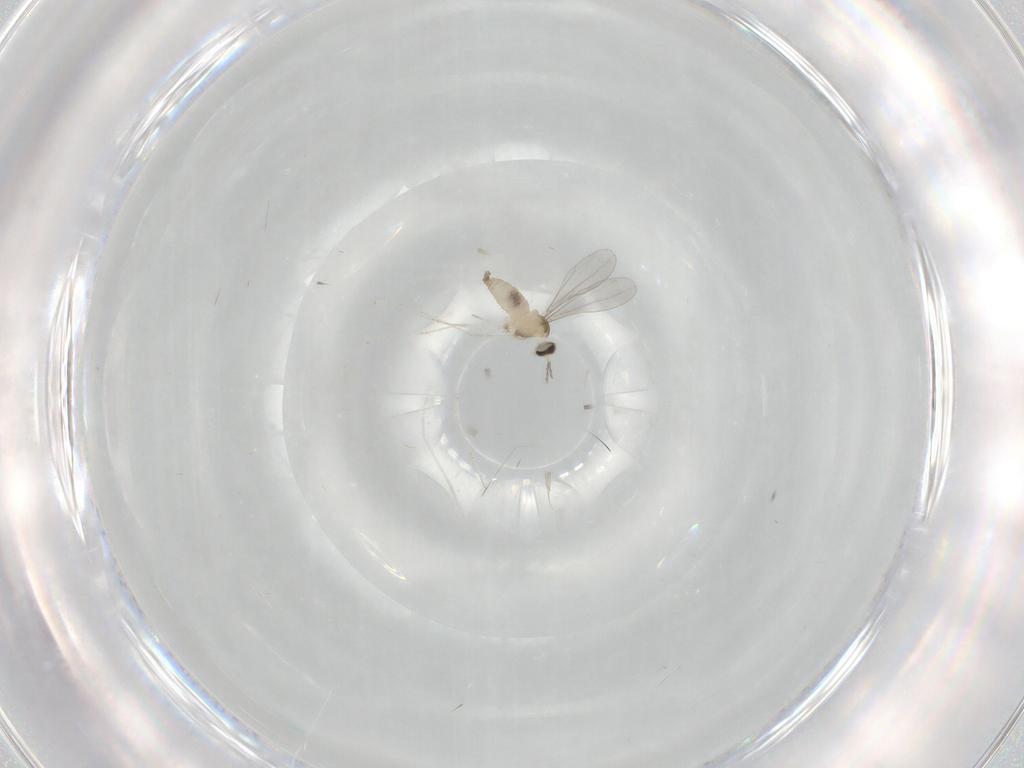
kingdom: Animalia
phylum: Arthropoda
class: Insecta
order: Diptera
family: Cecidomyiidae
